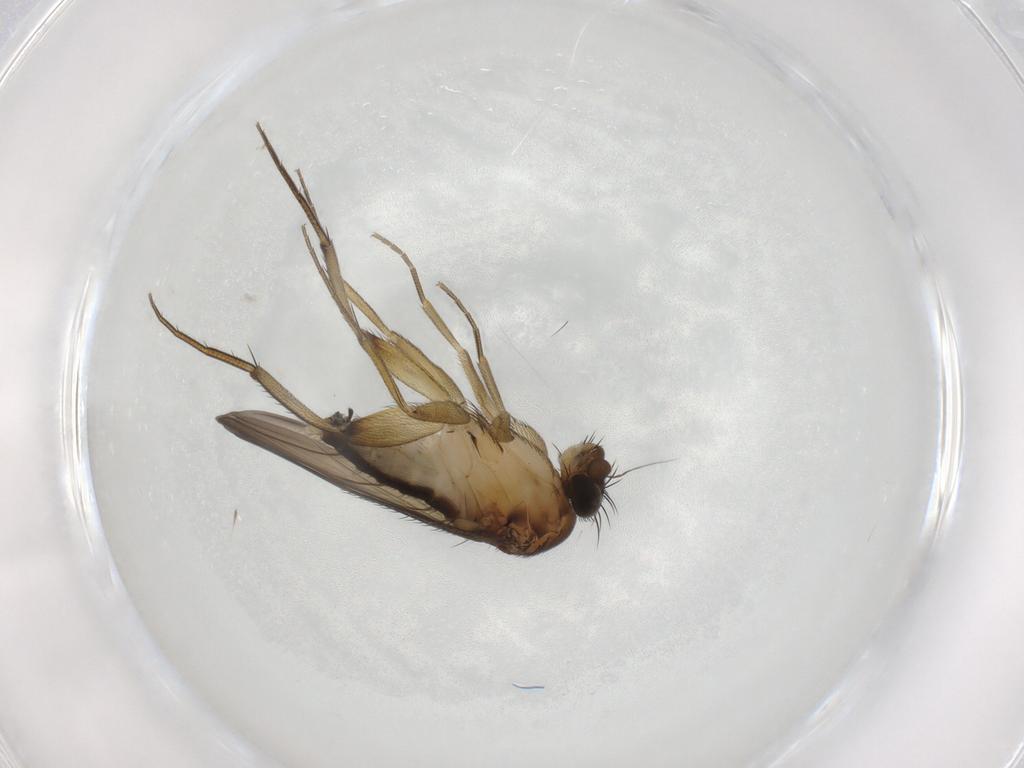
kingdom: Animalia
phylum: Arthropoda
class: Insecta
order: Diptera
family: Phoridae
